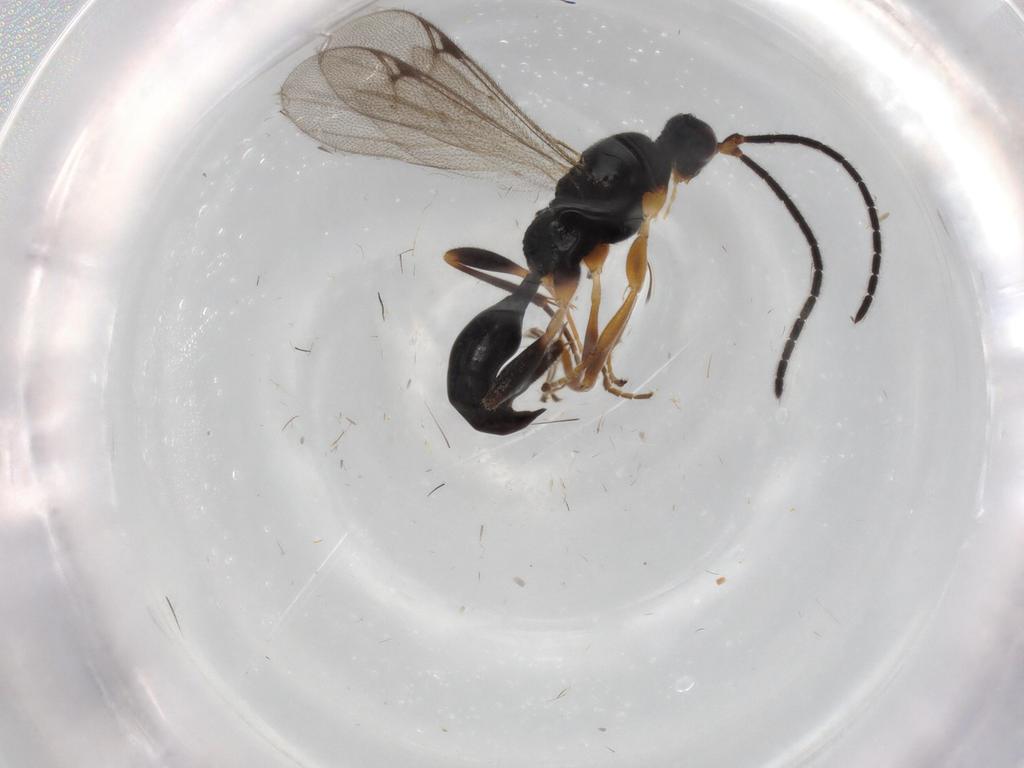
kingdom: Animalia
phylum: Arthropoda
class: Insecta
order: Hymenoptera
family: Proctotrupidae
